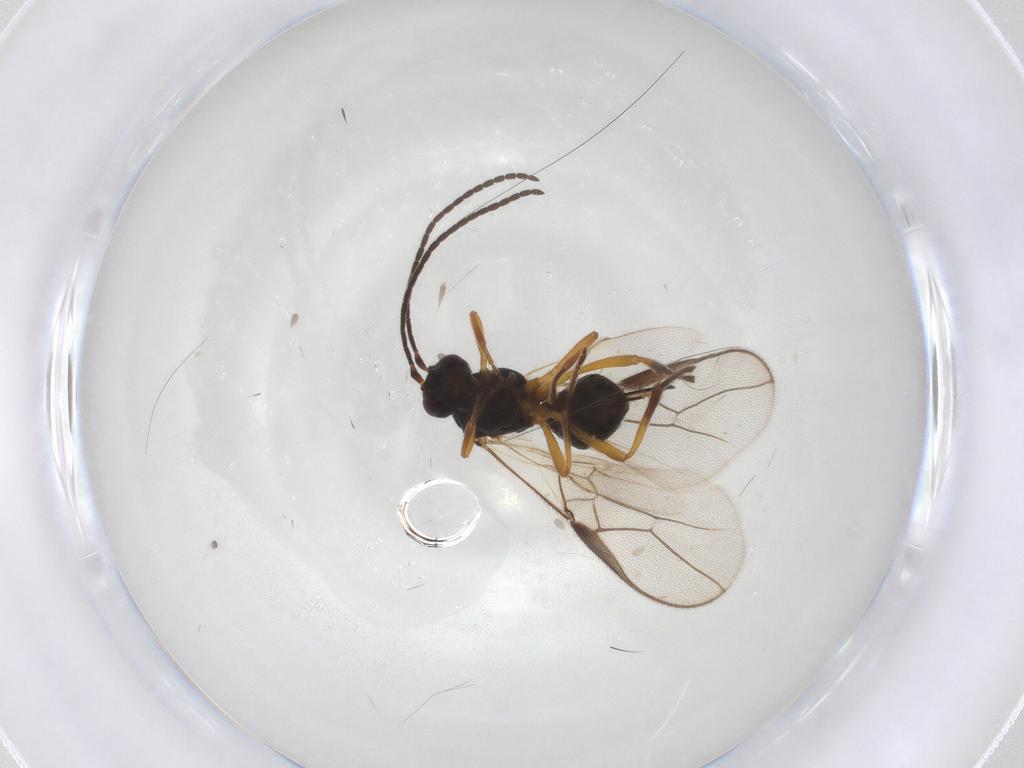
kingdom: Animalia
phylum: Arthropoda
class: Insecta
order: Hymenoptera
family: Braconidae
